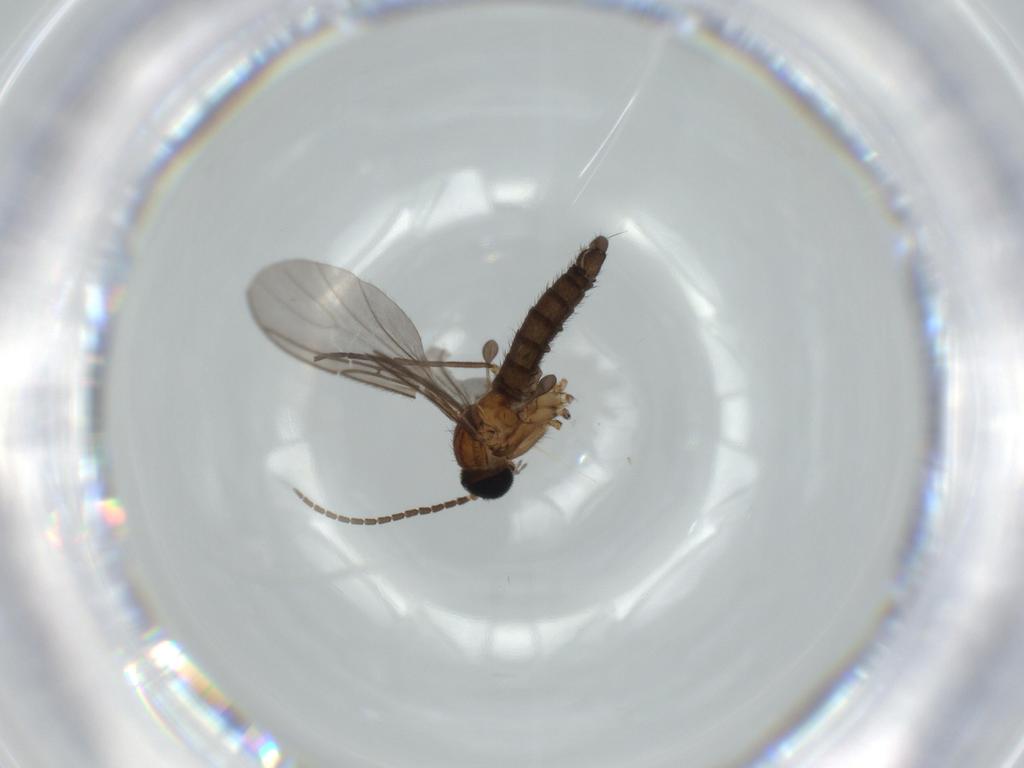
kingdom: Animalia
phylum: Arthropoda
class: Insecta
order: Diptera
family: Sciaridae
